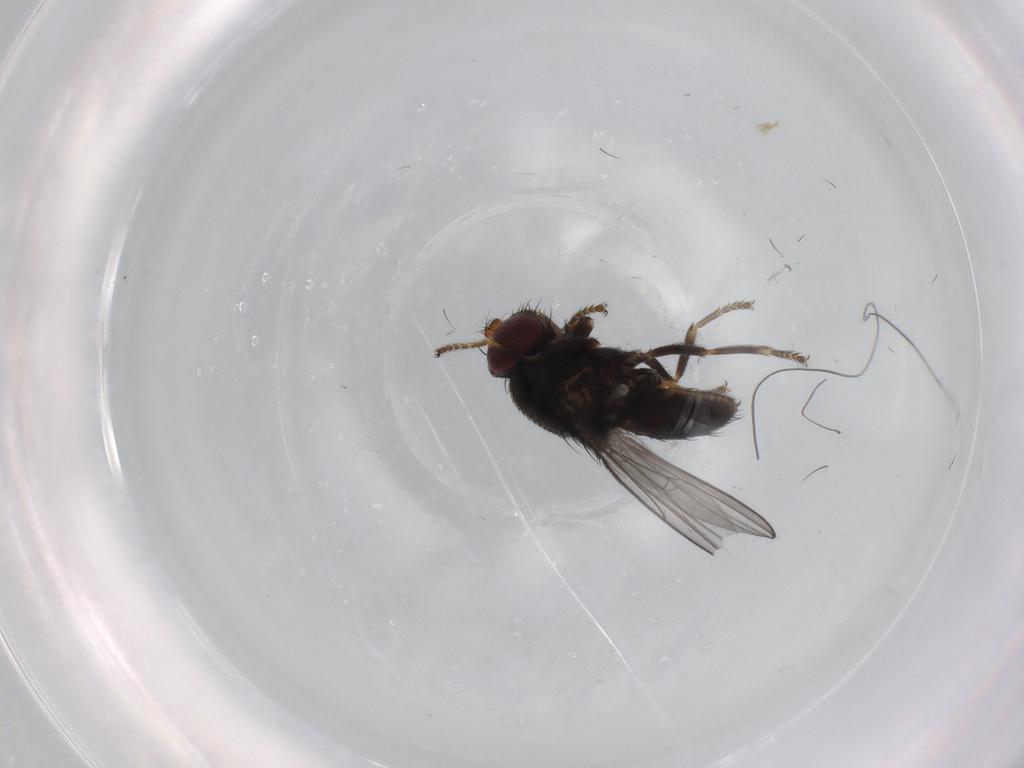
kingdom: Animalia
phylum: Arthropoda
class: Insecta
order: Diptera
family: Ephydridae
